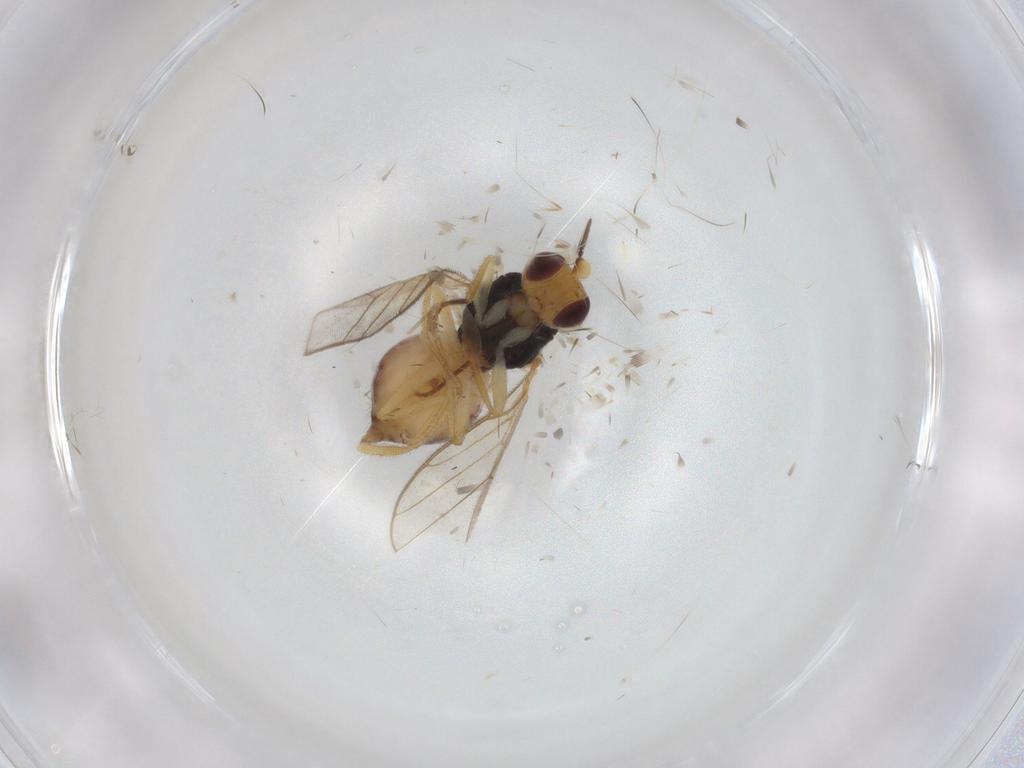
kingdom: Animalia
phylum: Arthropoda
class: Insecta
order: Diptera
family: Chloropidae
